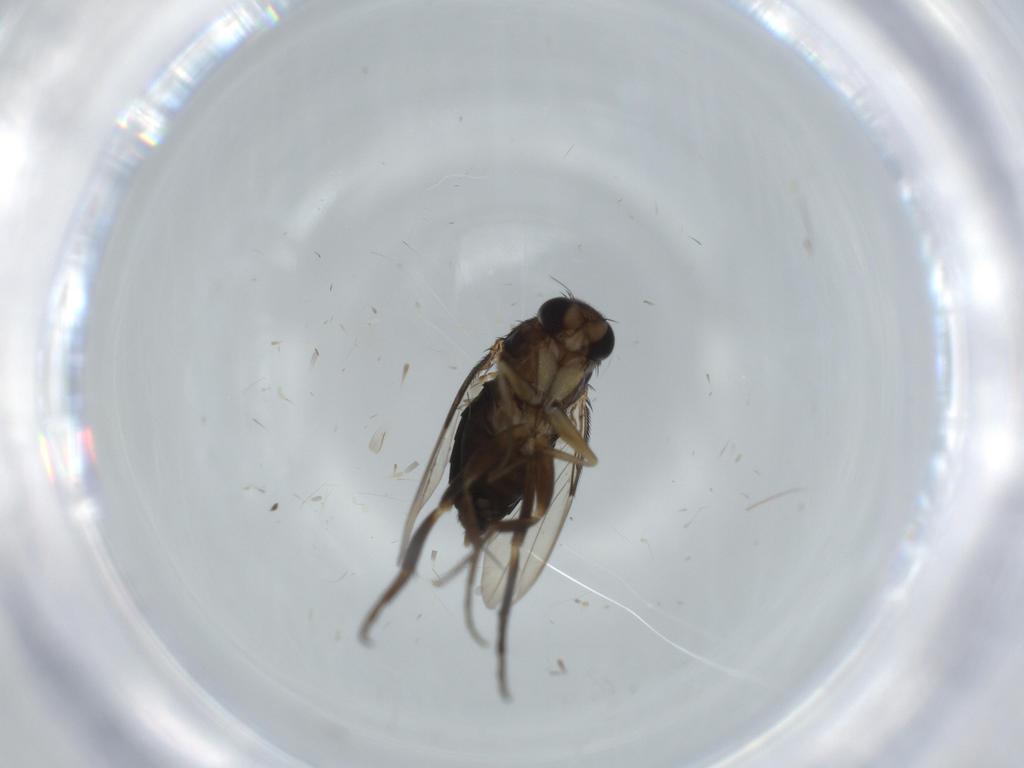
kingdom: Animalia
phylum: Arthropoda
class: Insecta
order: Diptera
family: Phoridae
